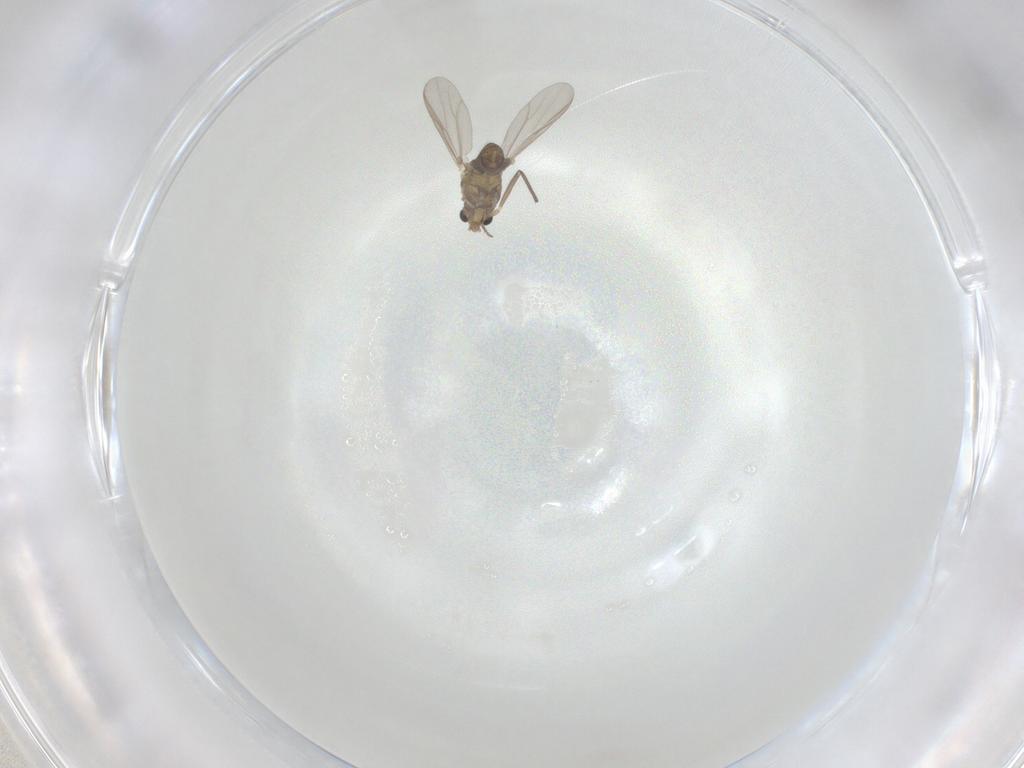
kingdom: Animalia
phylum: Arthropoda
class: Insecta
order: Diptera
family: Chironomidae
